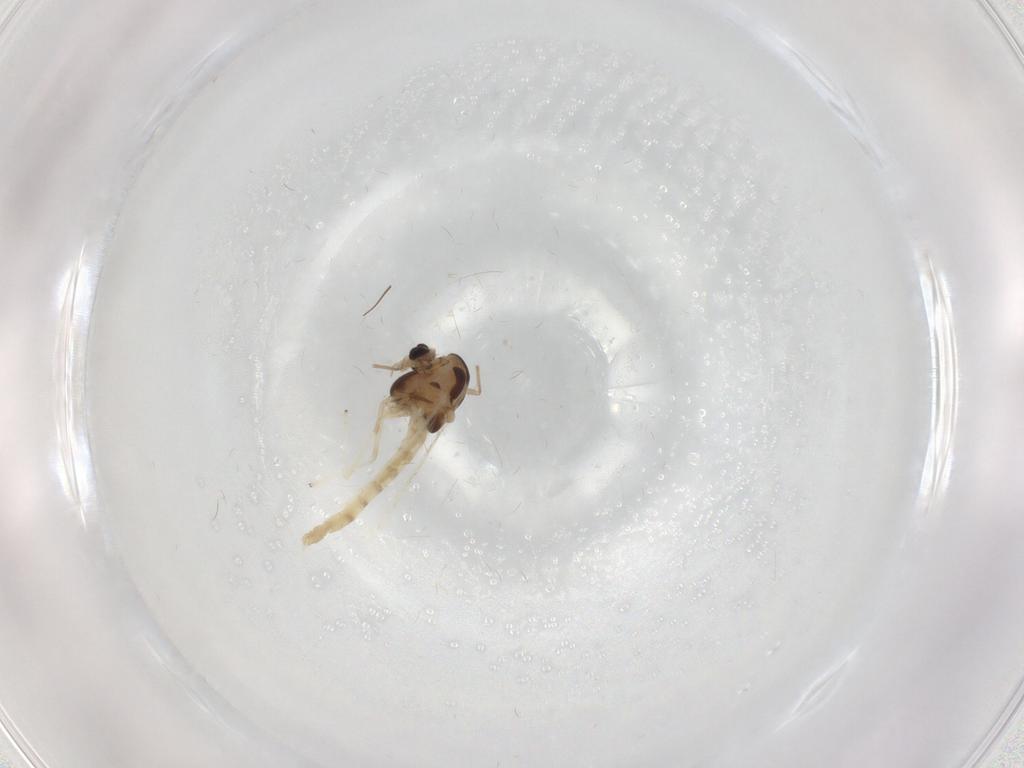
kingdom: Animalia
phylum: Arthropoda
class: Insecta
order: Diptera
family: Chironomidae
